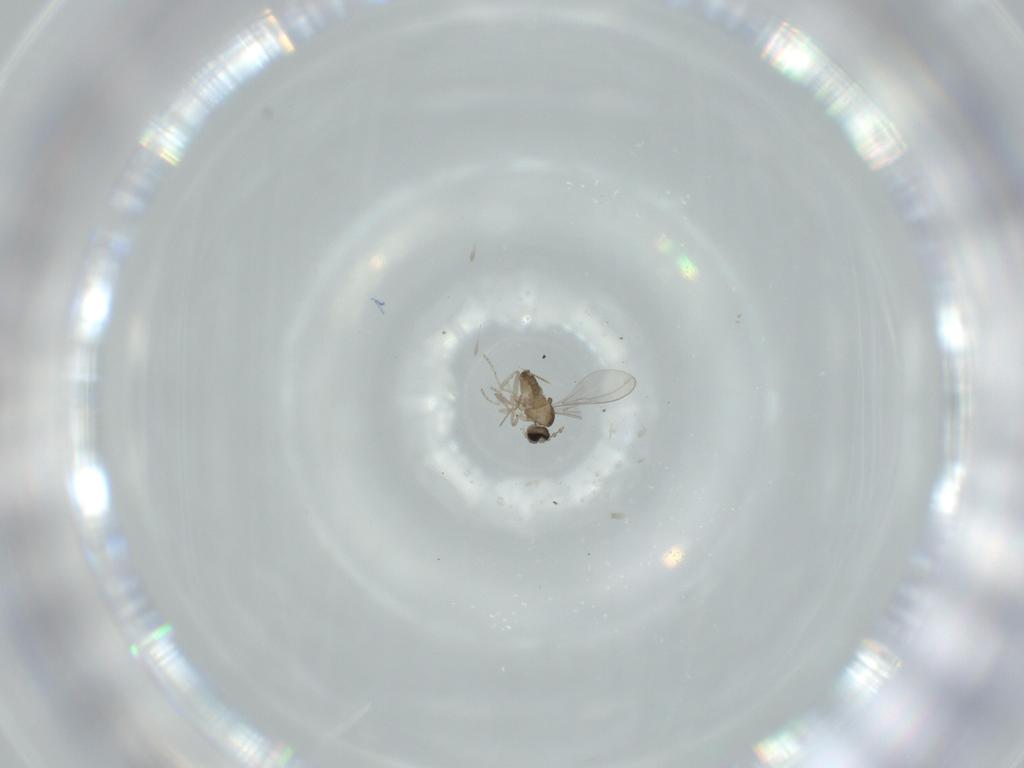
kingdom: Animalia
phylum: Arthropoda
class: Insecta
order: Diptera
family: Cecidomyiidae
